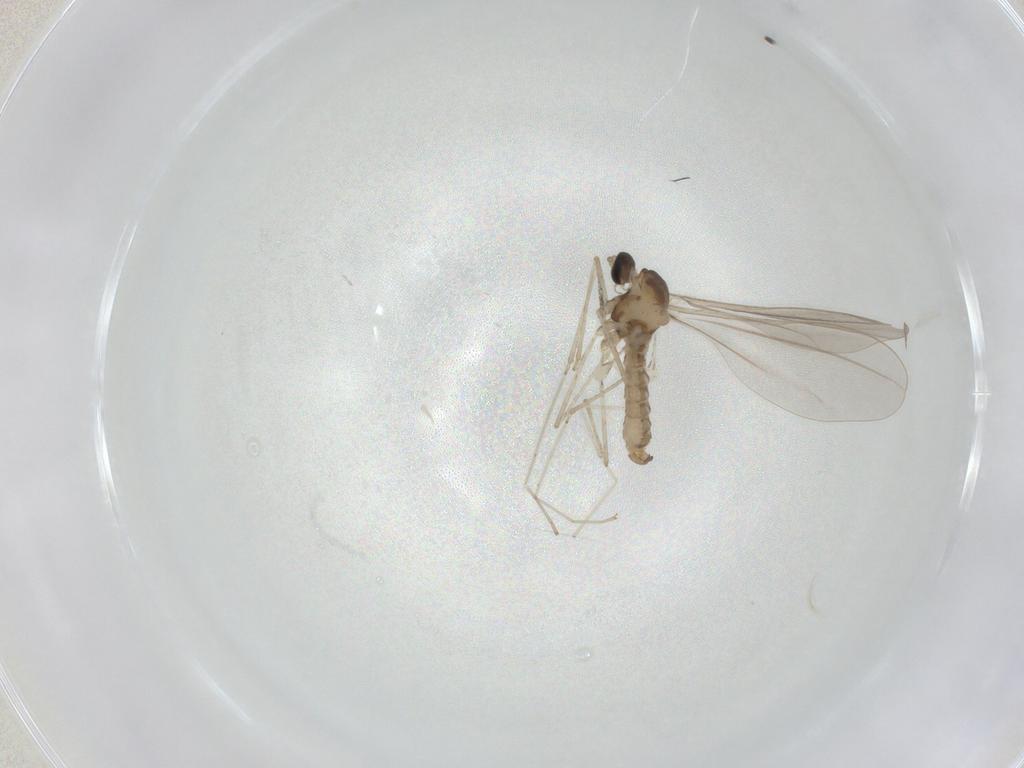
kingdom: Animalia
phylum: Arthropoda
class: Insecta
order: Diptera
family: Cecidomyiidae
